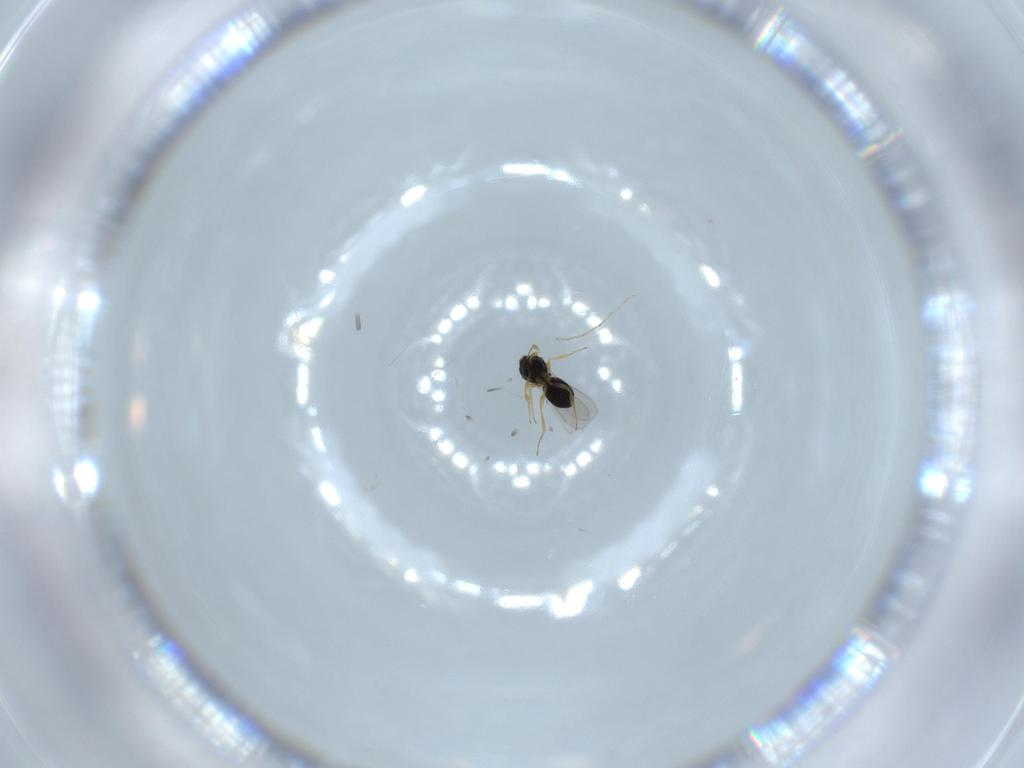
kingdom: Animalia
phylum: Arthropoda
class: Insecta
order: Hymenoptera
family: Scelionidae
